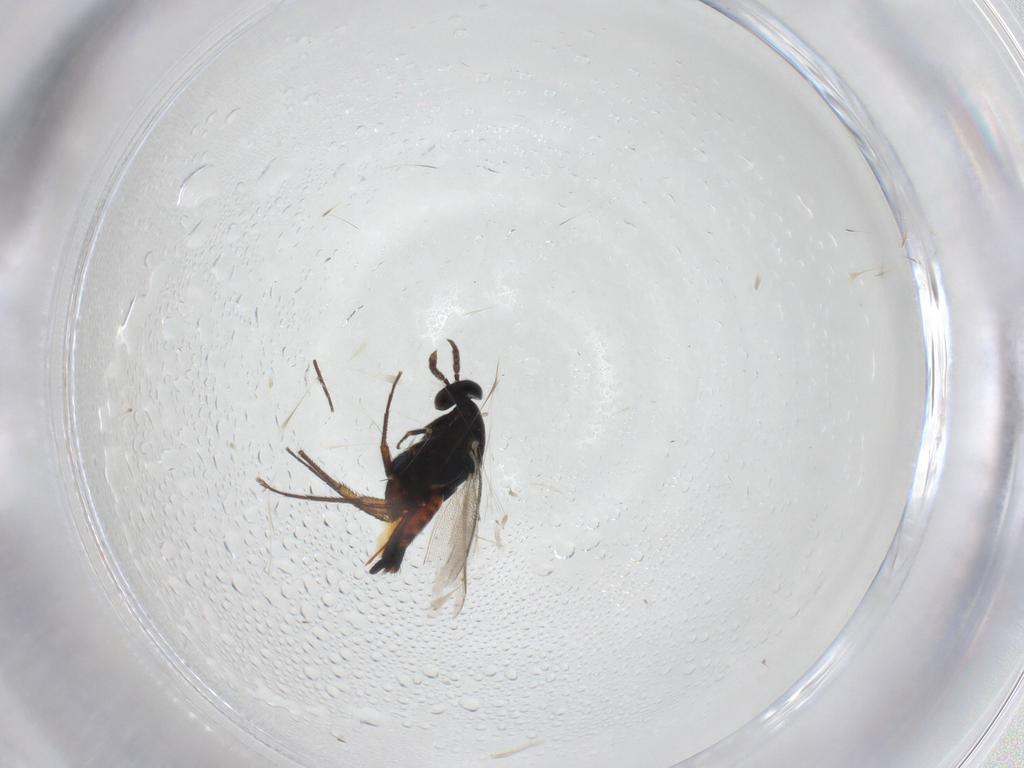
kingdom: Animalia
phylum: Arthropoda
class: Insecta
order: Hymenoptera
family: Eulophidae
